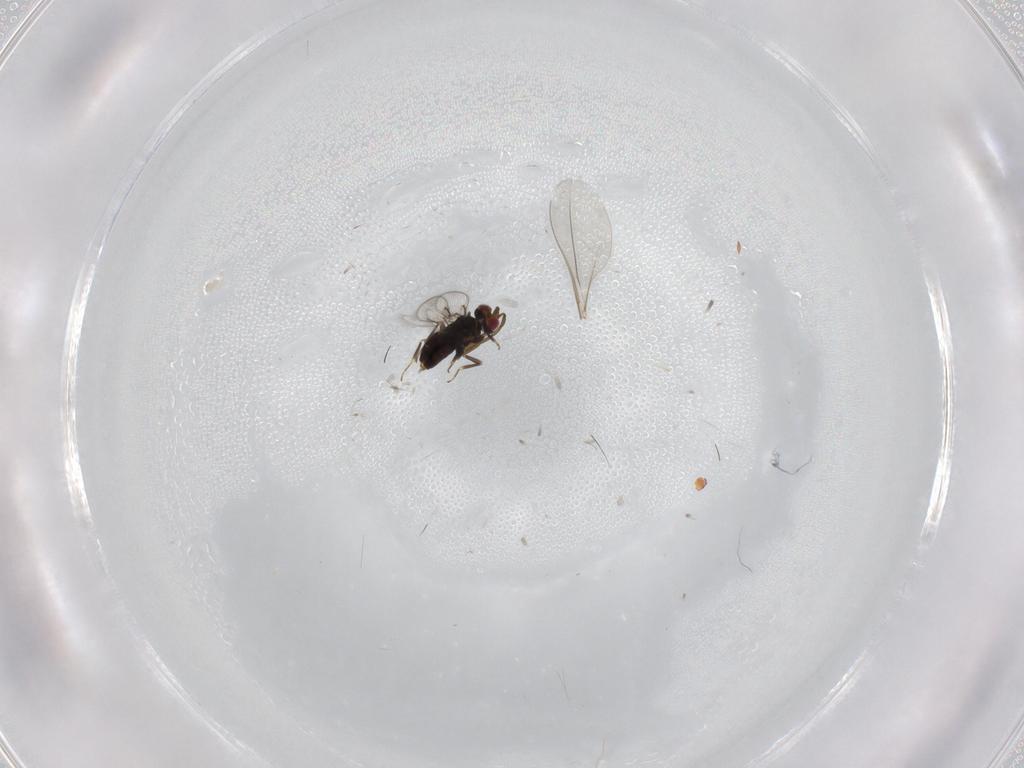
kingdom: Animalia
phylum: Arthropoda
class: Insecta
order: Diptera
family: Cecidomyiidae
